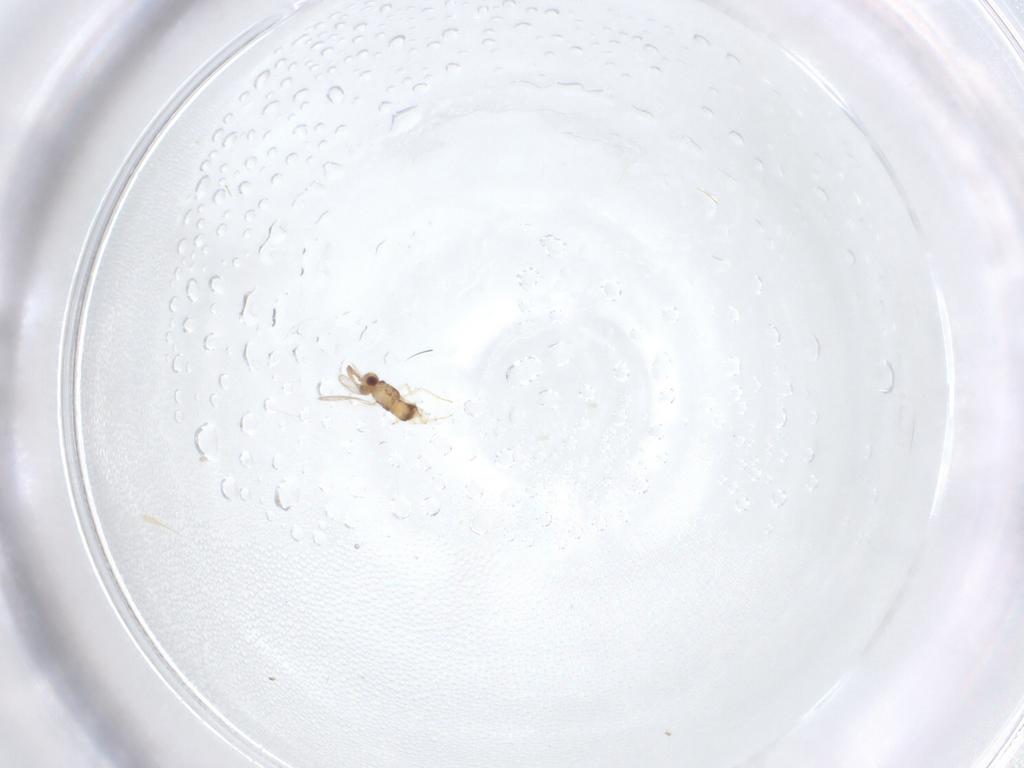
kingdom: Animalia
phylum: Arthropoda
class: Insecta
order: Hymenoptera
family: Aphelinidae
